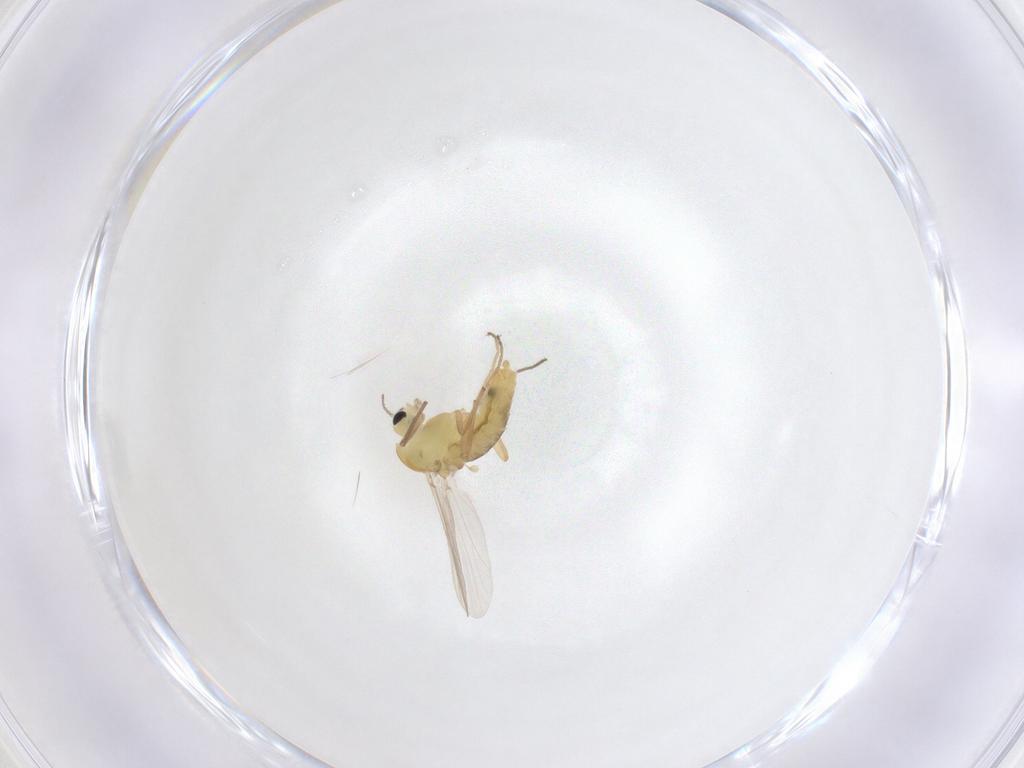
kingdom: Animalia
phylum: Arthropoda
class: Insecta
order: Diptera
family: Chironomidae
